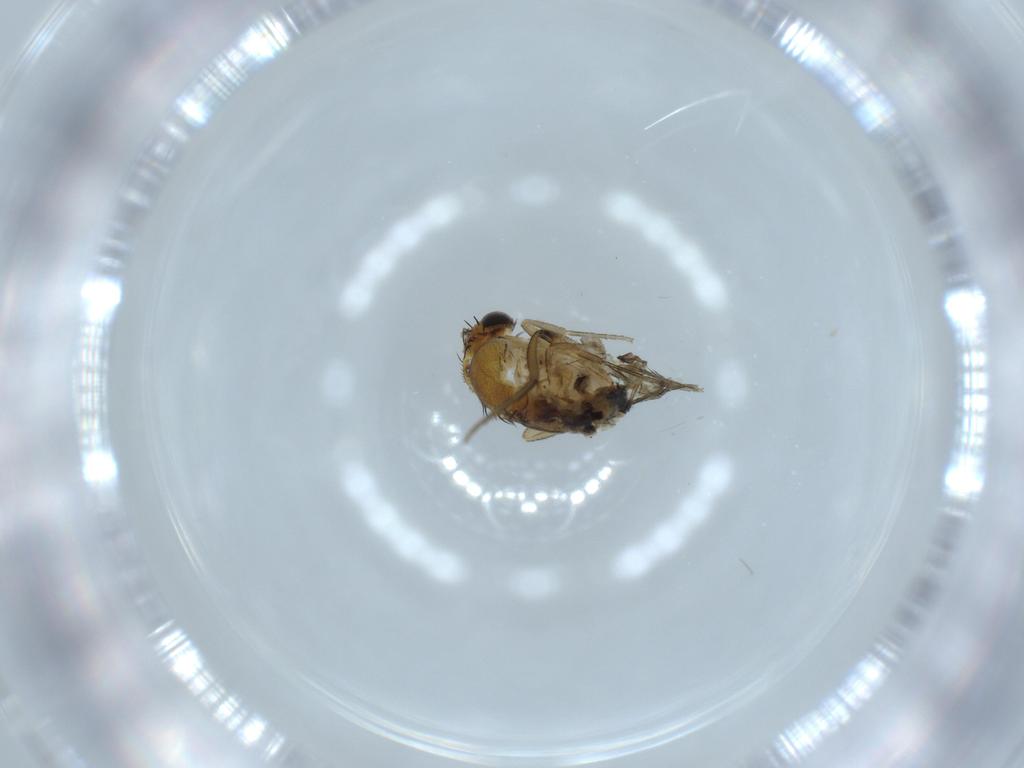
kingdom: Animalia
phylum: Arthropoda
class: Insecta
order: Diptera
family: Phoridae
